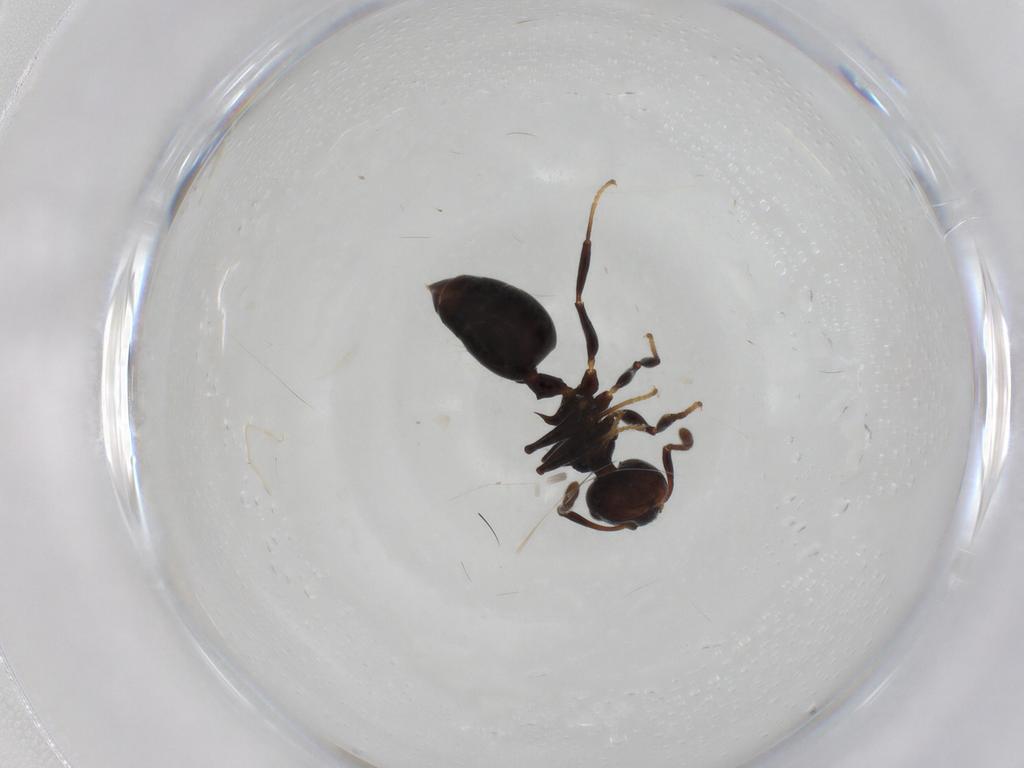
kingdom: Animalia
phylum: Arthropoda
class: Insecta
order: Hymenoptera
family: Formicidae
